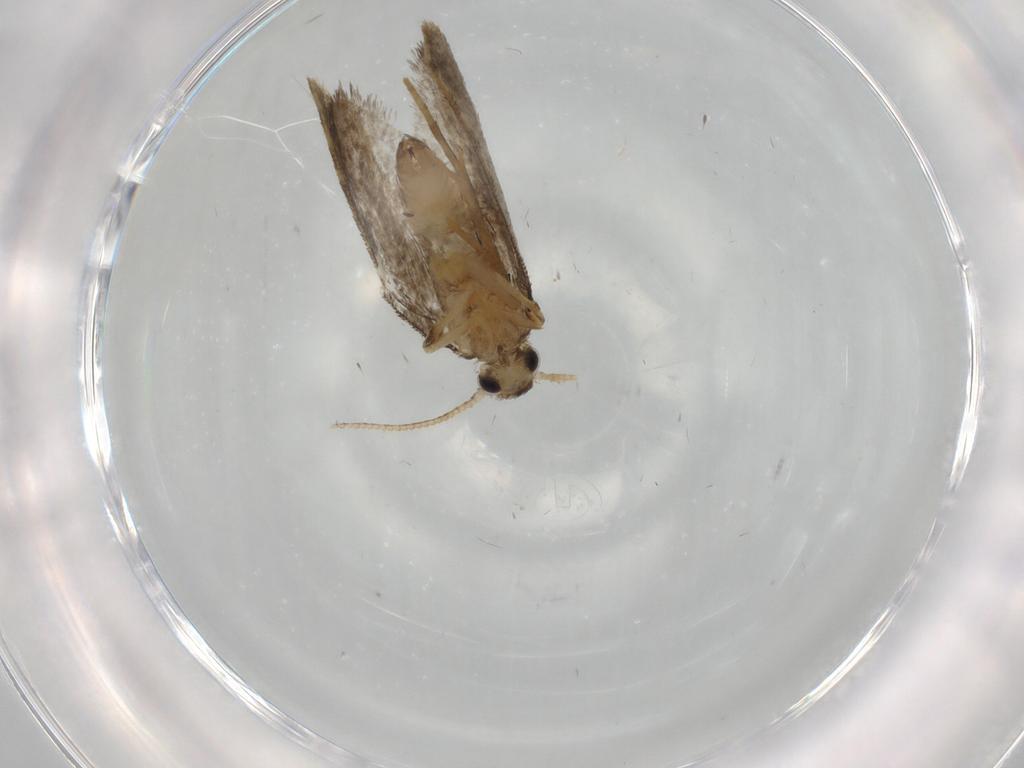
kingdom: Animalia
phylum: Arthropoda
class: Insecta
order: Lepidoptera
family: Psychidae
